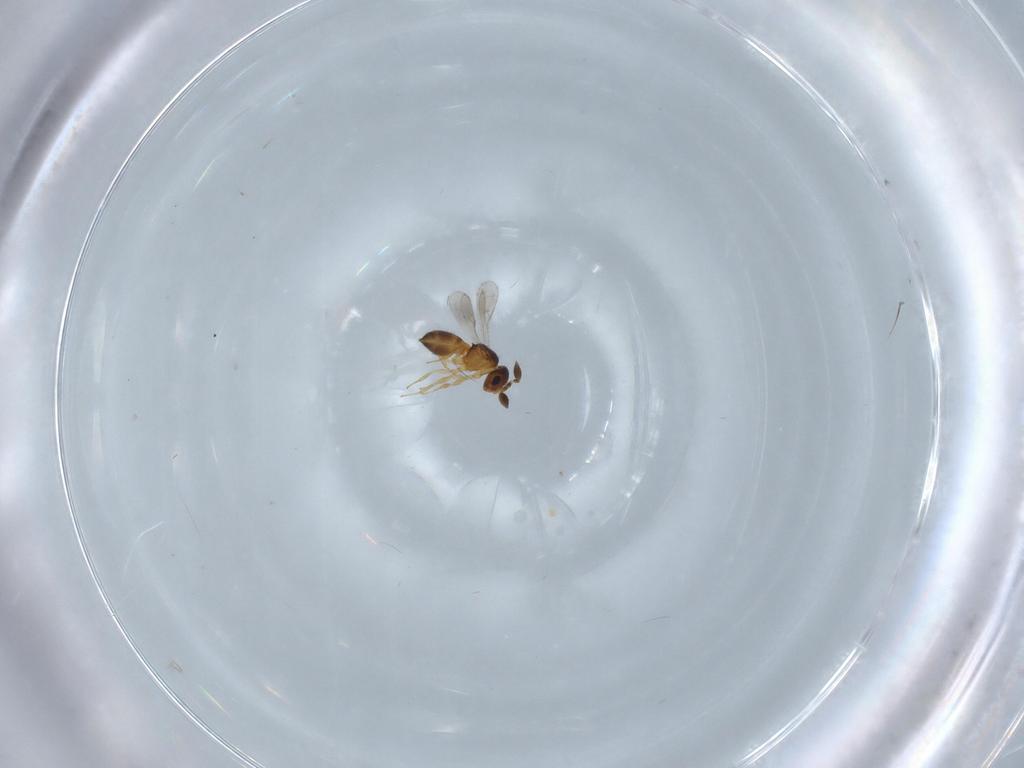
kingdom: Animalia
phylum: Arthropoda
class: Insecta
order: Hymenoptera
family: Scelionidae
